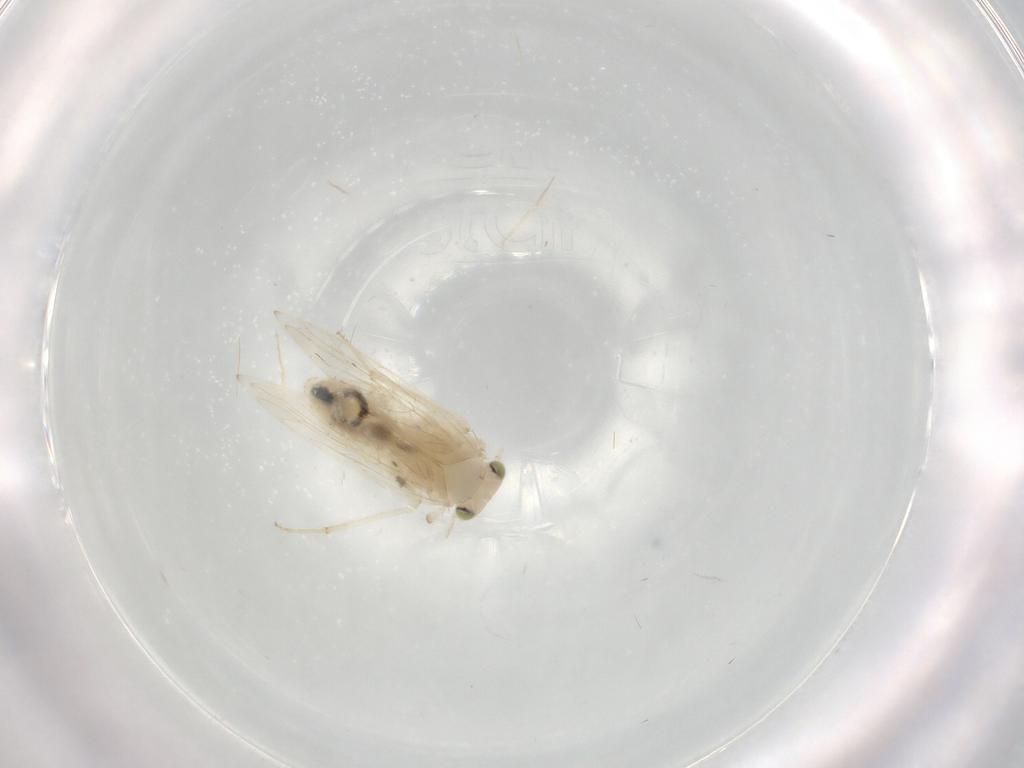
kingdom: Animalia
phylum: Arthropoda
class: Insecta
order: Psocodea
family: Lepidopsocidae
